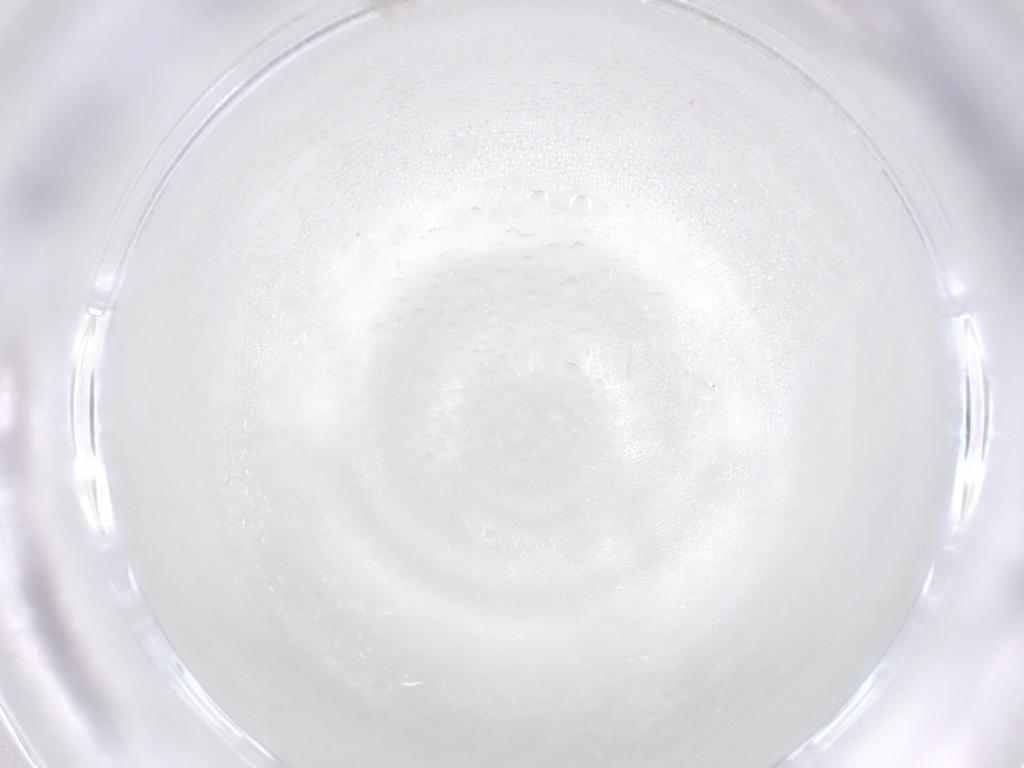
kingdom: Animalia
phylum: Arthropoda
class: Insecta
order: Diptera
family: Cecidomyiidae
